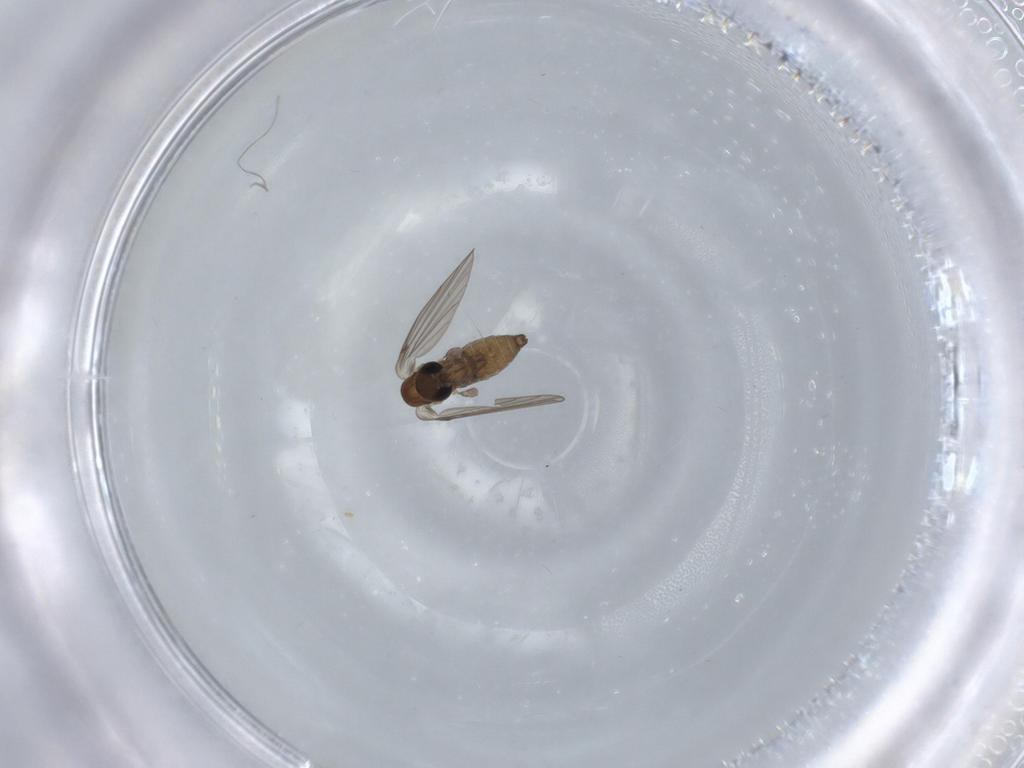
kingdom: Animalia
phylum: Arthropoda
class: Insecta
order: Diptera
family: Psychodidae
